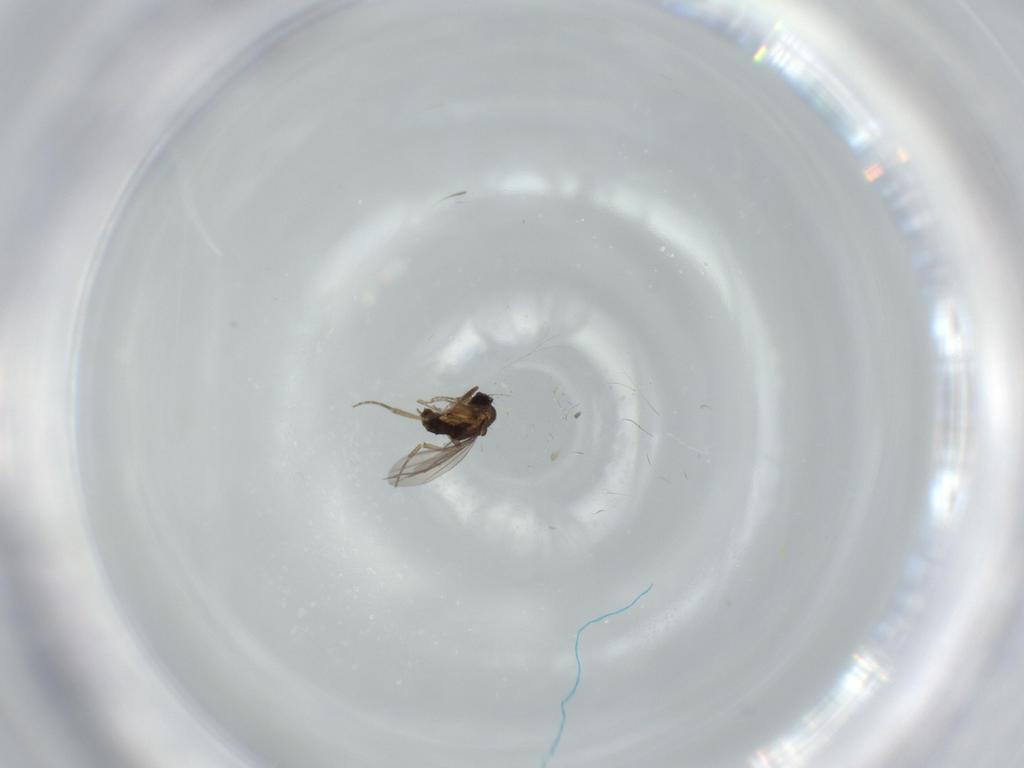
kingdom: Animalia
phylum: Arthropoda
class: Insecta
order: Diptera
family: Phoridae
